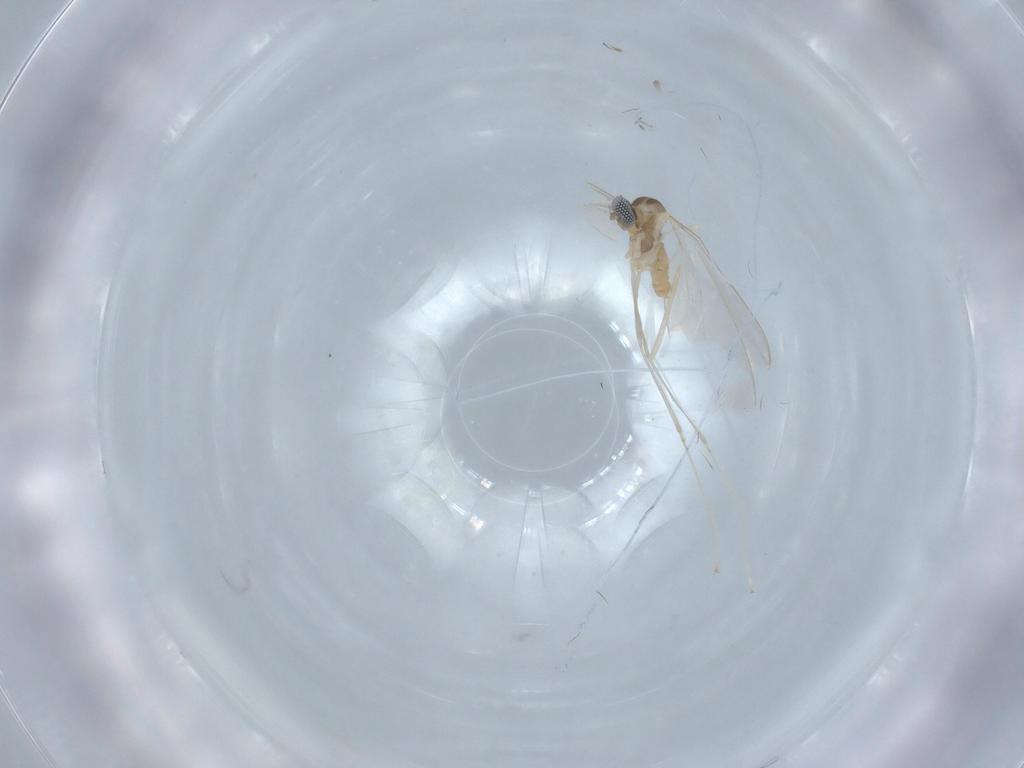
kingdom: Animalia
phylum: Arthropoda
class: Insecta
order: Diptera
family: Cecidomyiidae
